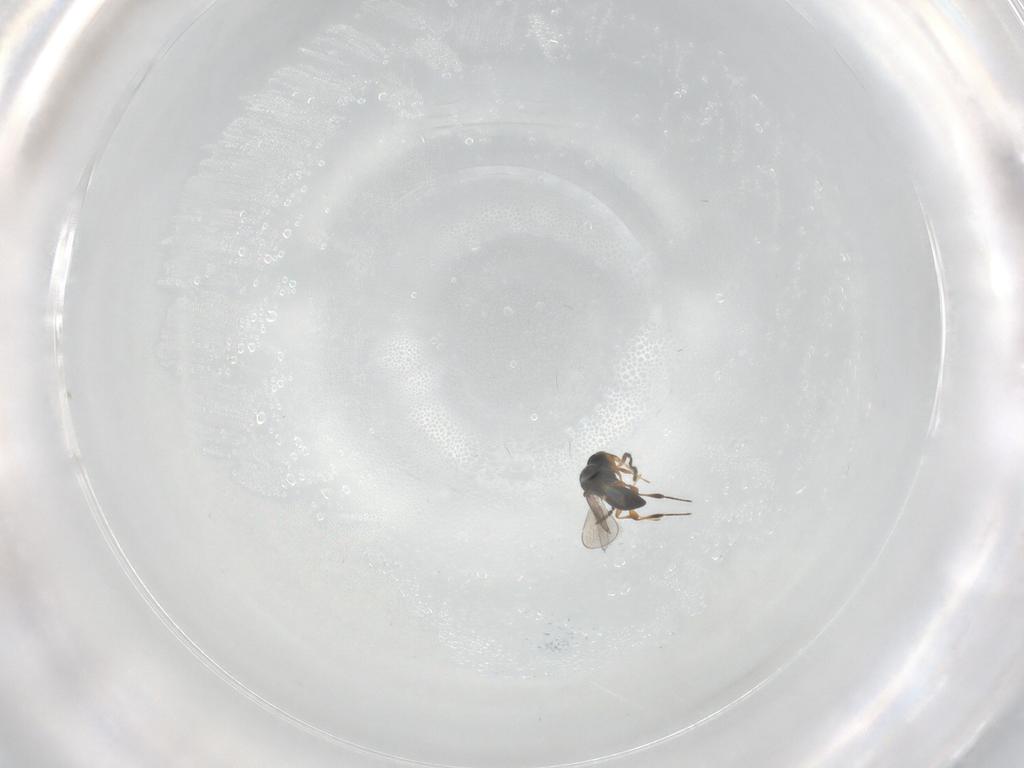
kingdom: Animalia
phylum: Arthropoda
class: Insecta
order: Hymenoptera
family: Platygastridae
